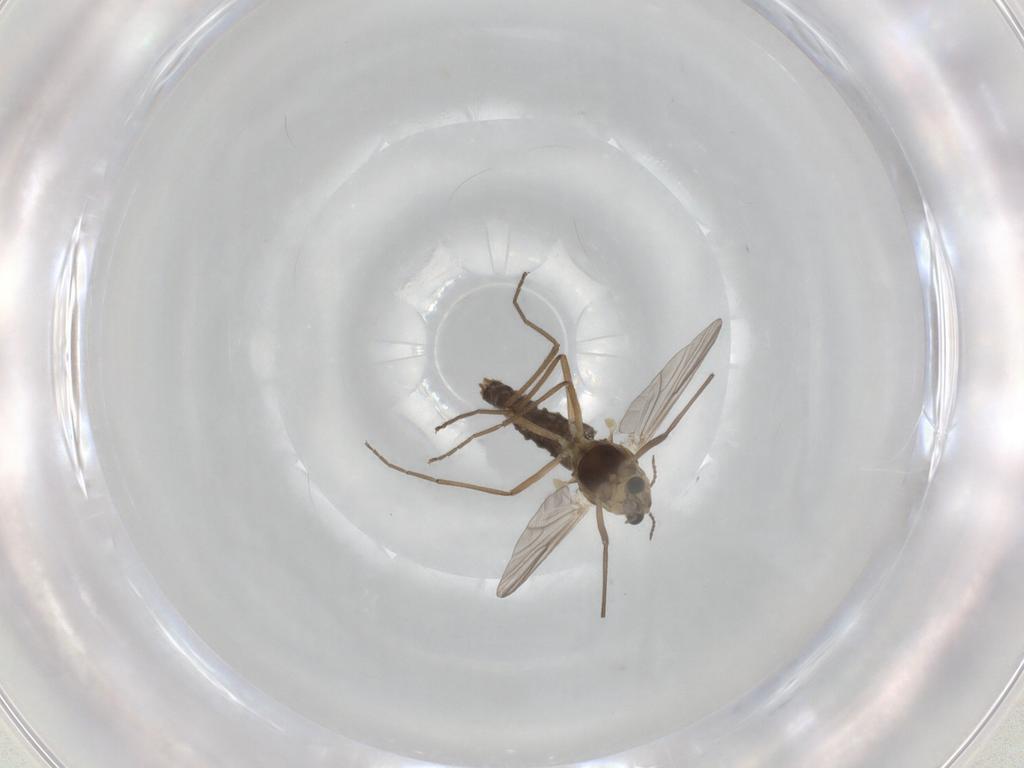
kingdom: Animalia
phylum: Arthropoda
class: Insecta
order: Diptera
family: Chironomidae
